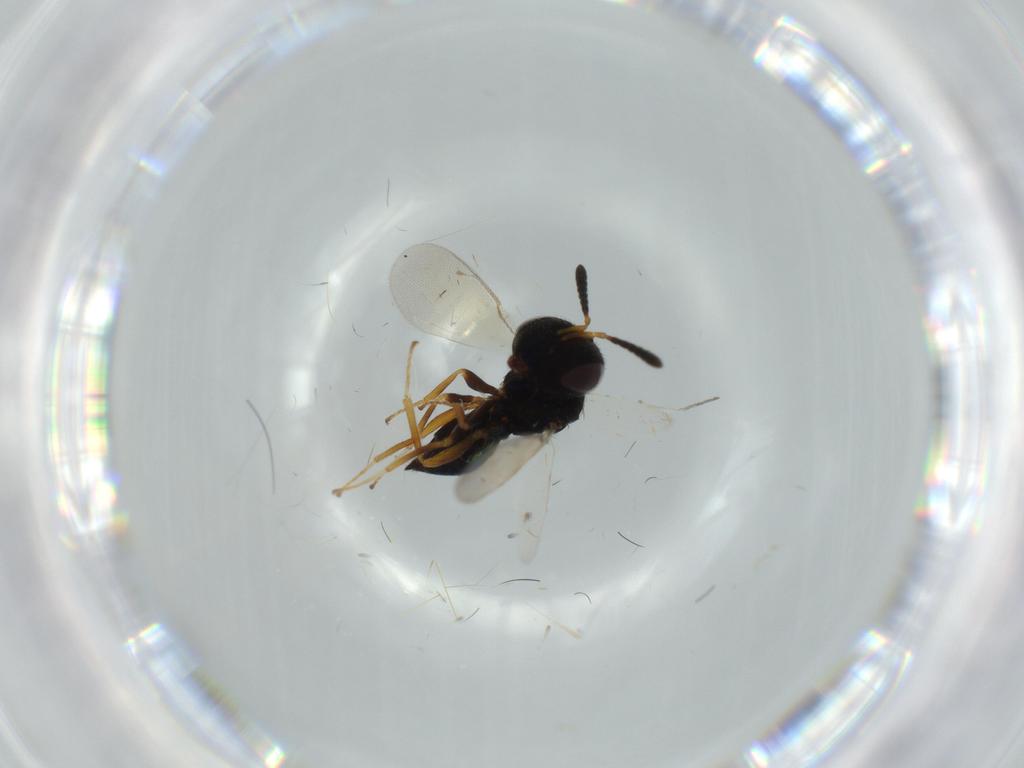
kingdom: Animalia
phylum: Arthropoda
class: Insecta
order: Hymenoptera
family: Pteromalidae
